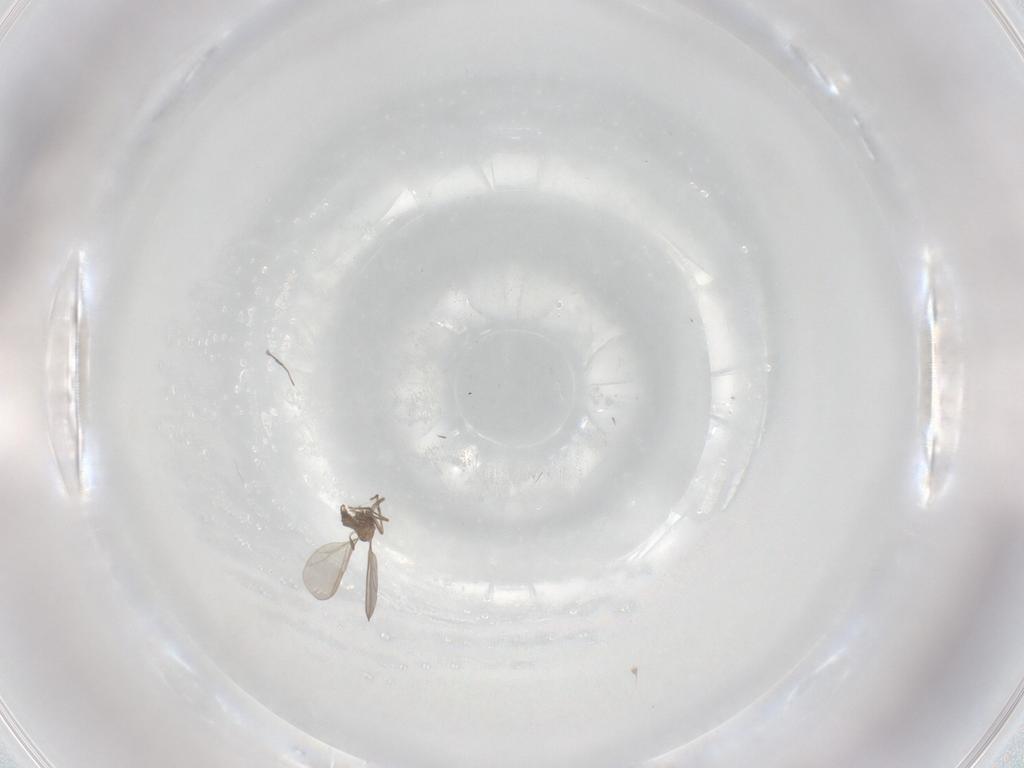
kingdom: Animalia
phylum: Arthropoda
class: Insecta
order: Diptera
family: Sciaridae
